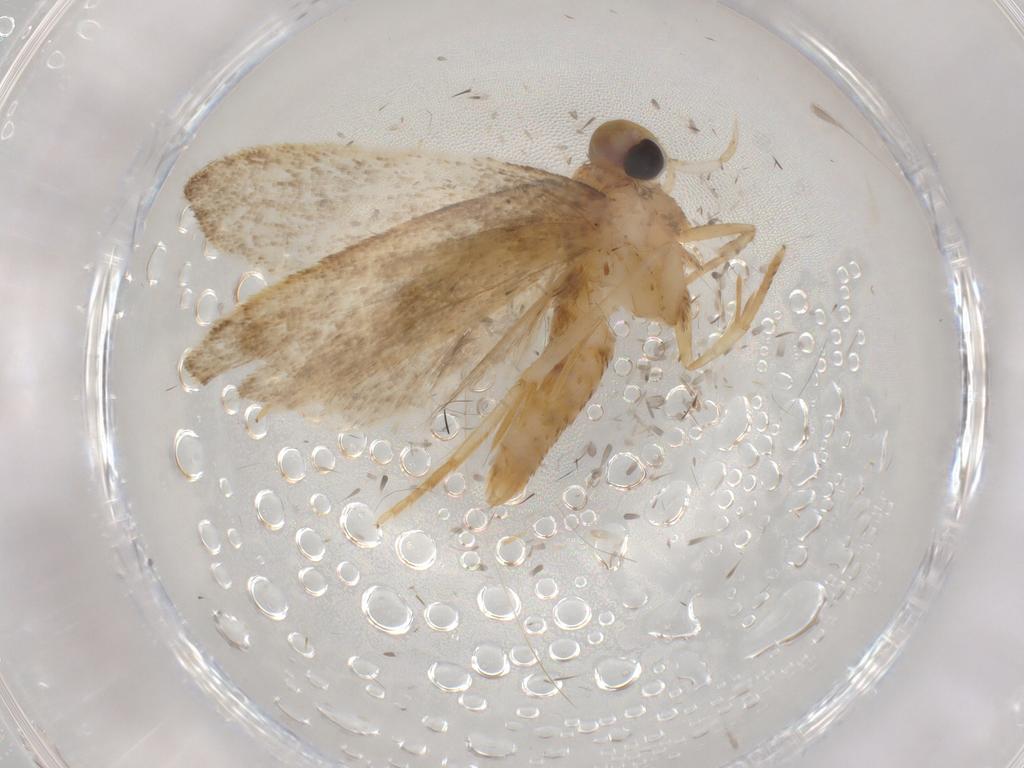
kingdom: Animalia
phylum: Arthropoda
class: Insecta
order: Lepidoptera
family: Autostichidae
